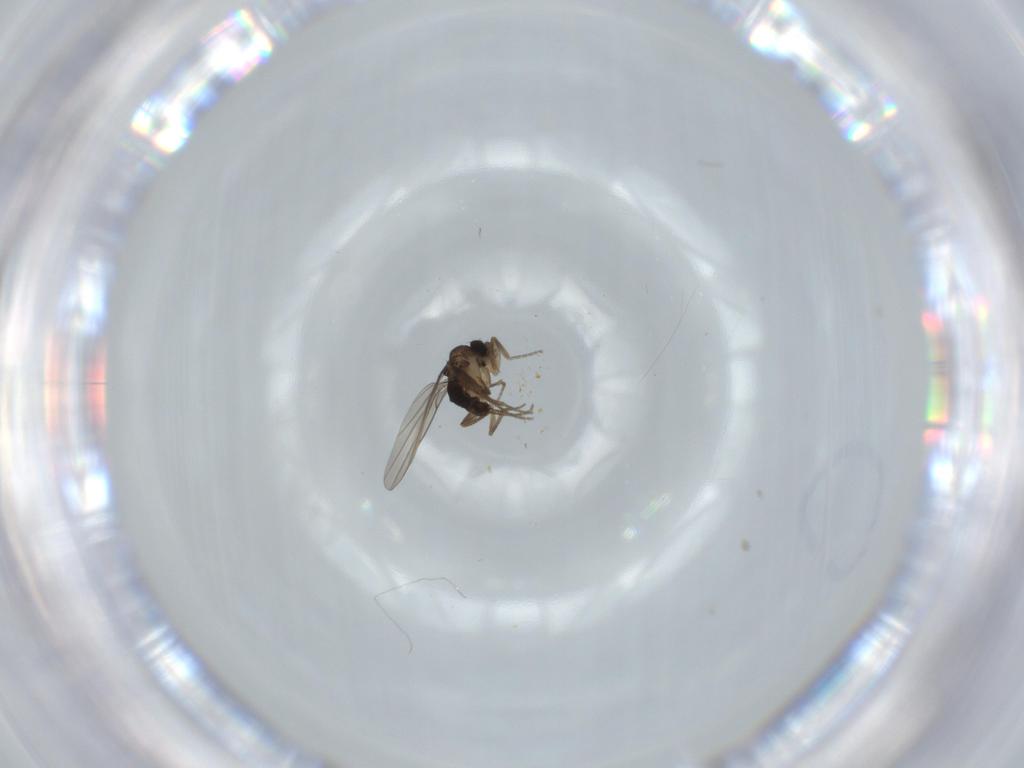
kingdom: Animalia
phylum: Arthropoda
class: Insecta
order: Diptera
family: Phoridae
